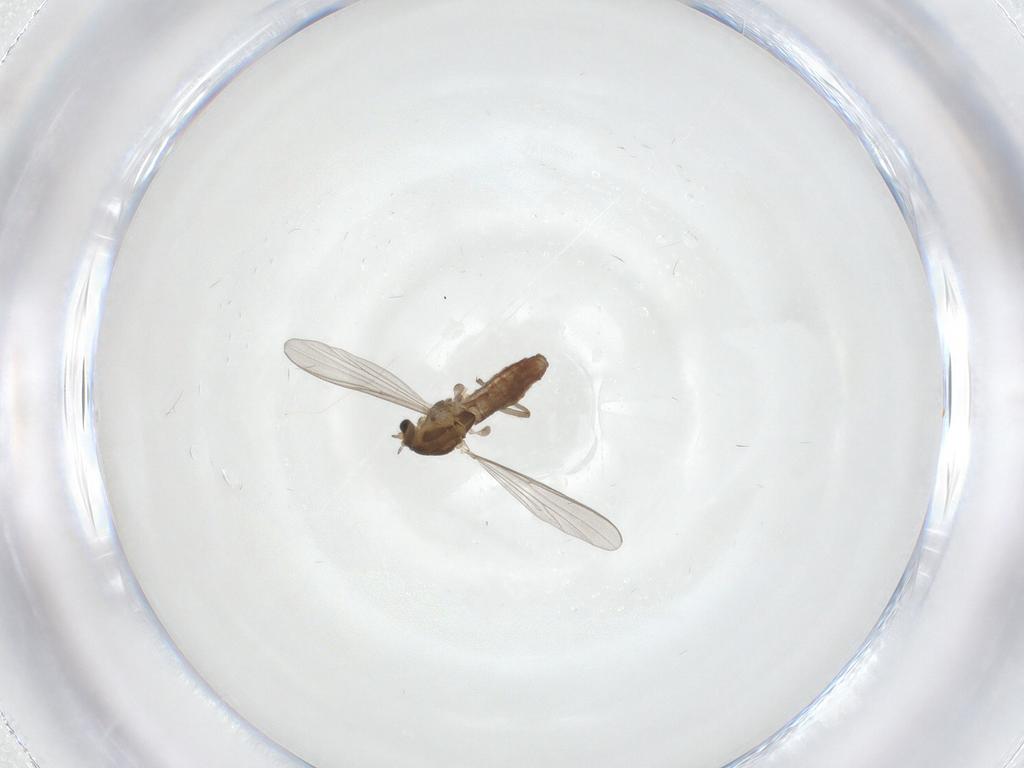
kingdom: Animalia
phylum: Arthropoda
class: Insecta
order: Diptera
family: Chironomidae
